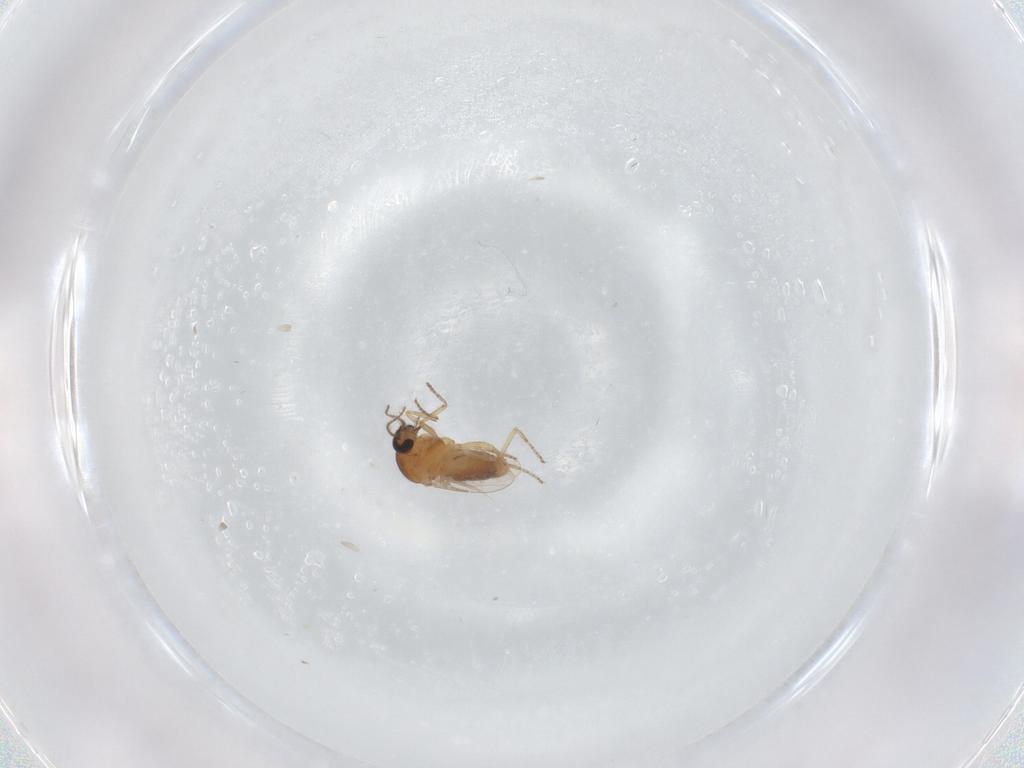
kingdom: Animalia
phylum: Arthropoda
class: Insecta
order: Diptera
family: Ceratopogonidae
